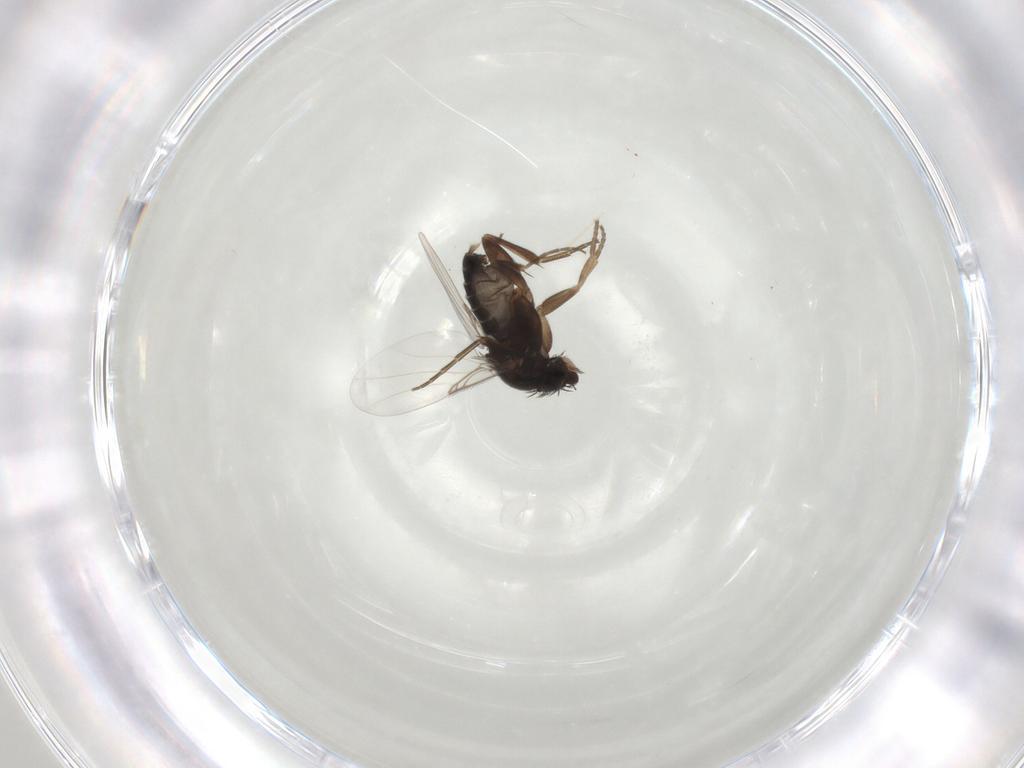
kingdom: Animalia
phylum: Arthropoda
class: Insecta
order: Diptera
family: Phoridae
